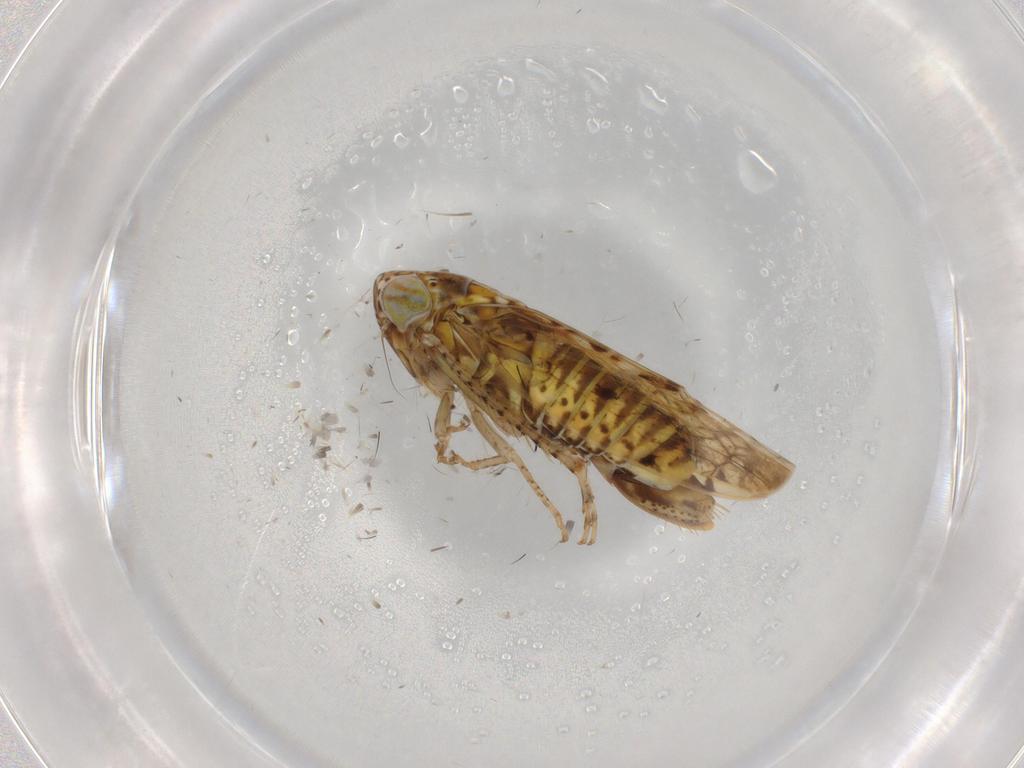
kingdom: Animalia
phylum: Arthropoda
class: Insecta
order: Hemiptera
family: Cicadellidae
